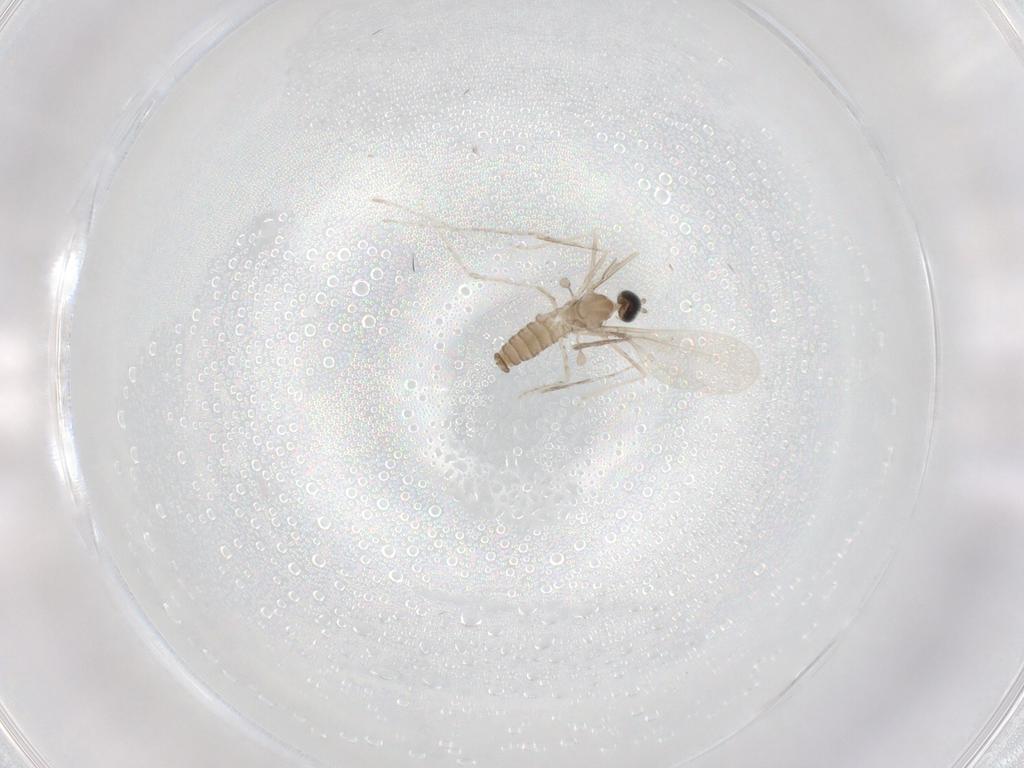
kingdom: Animalia
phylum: Arthropoda
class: Insecta
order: Diptera
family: Cecidomyiidae
